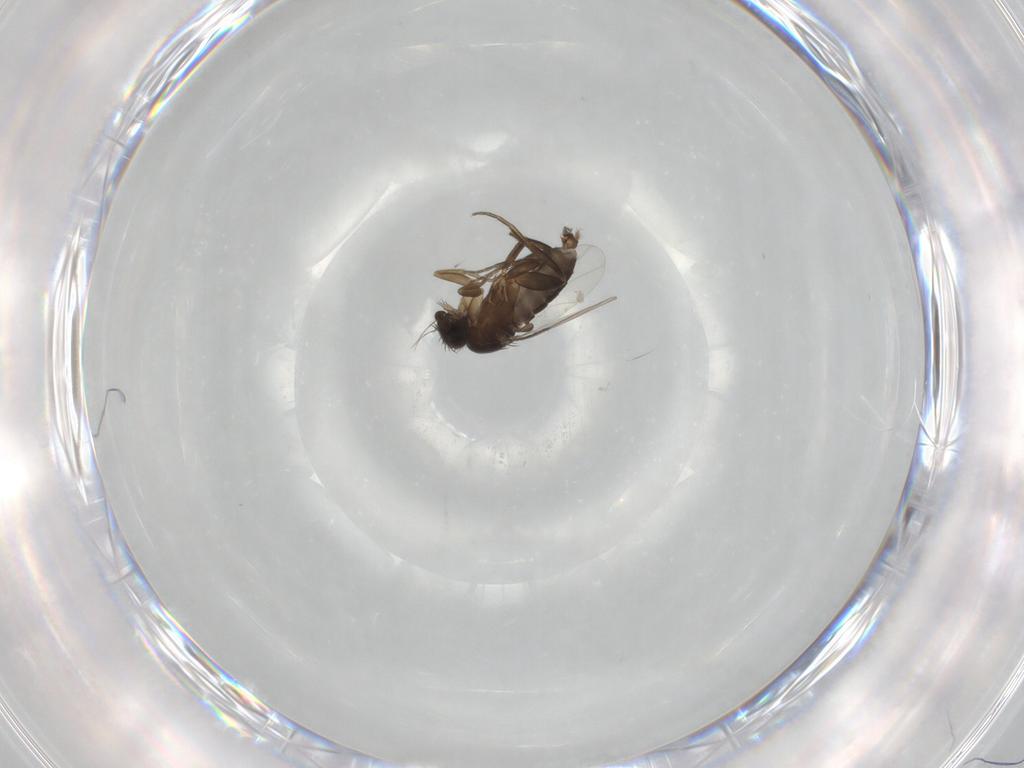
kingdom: Animalia
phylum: Arthropoda
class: Insecta
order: Diptera
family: Phoridae
